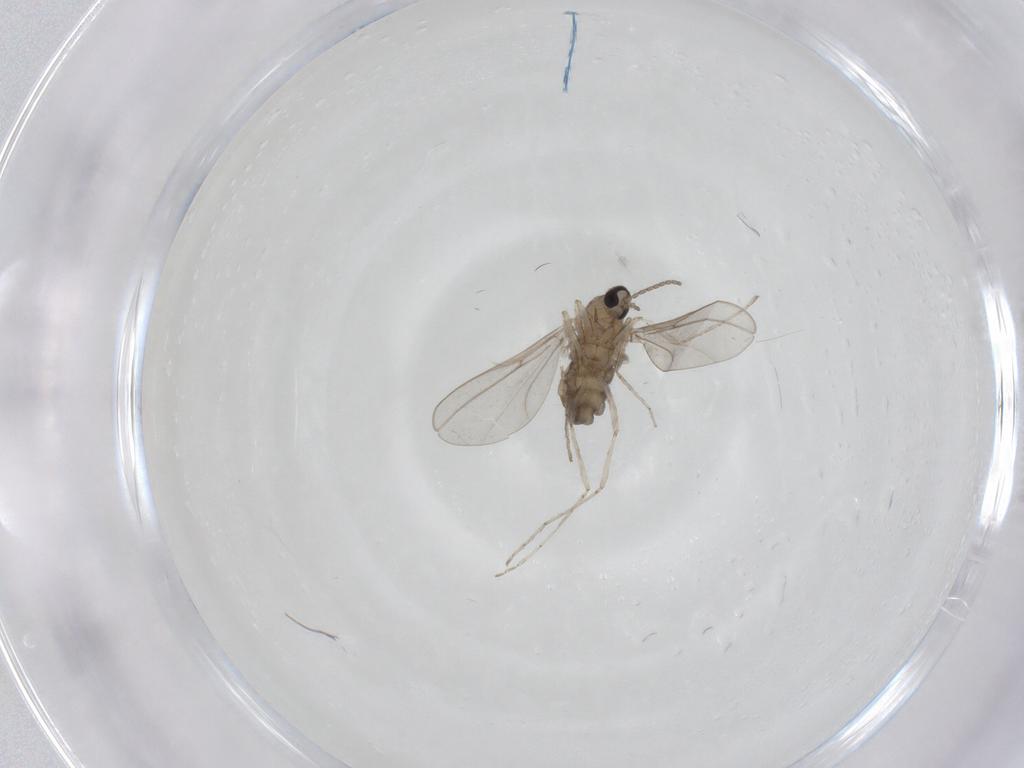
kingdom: Animalia
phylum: Arthropoda
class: Insecta
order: Diptera
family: Cecidomyiidae
